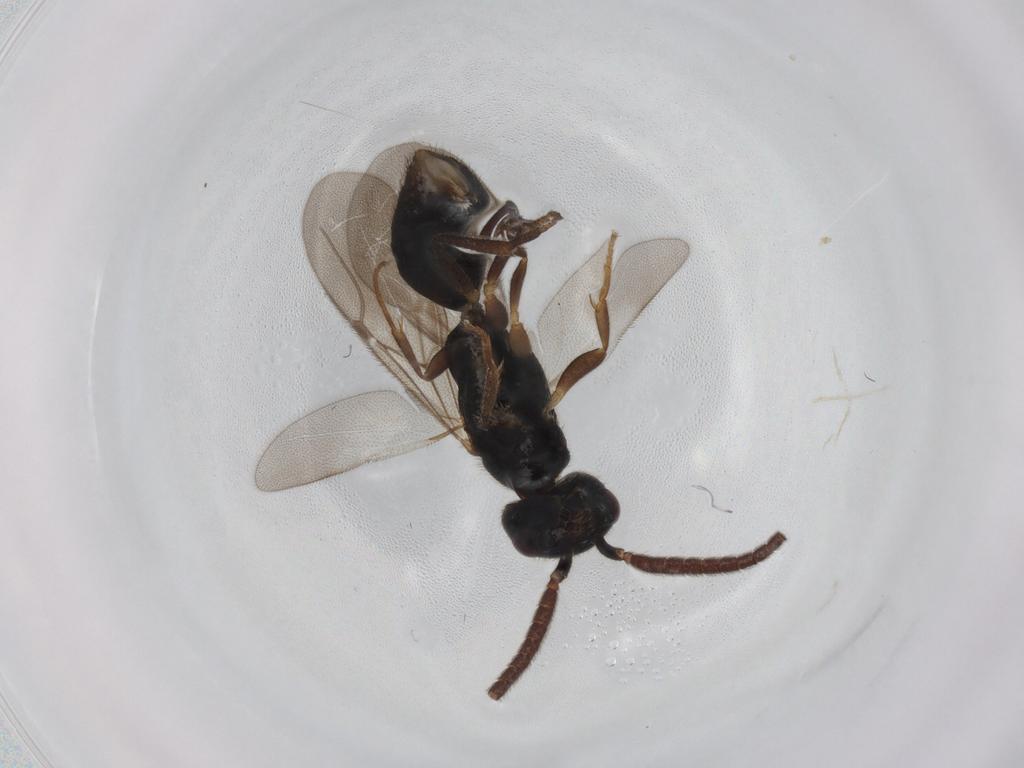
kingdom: Animalia
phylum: Arthropoda
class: Insecta
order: Hymenoptera
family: Bethylidae
